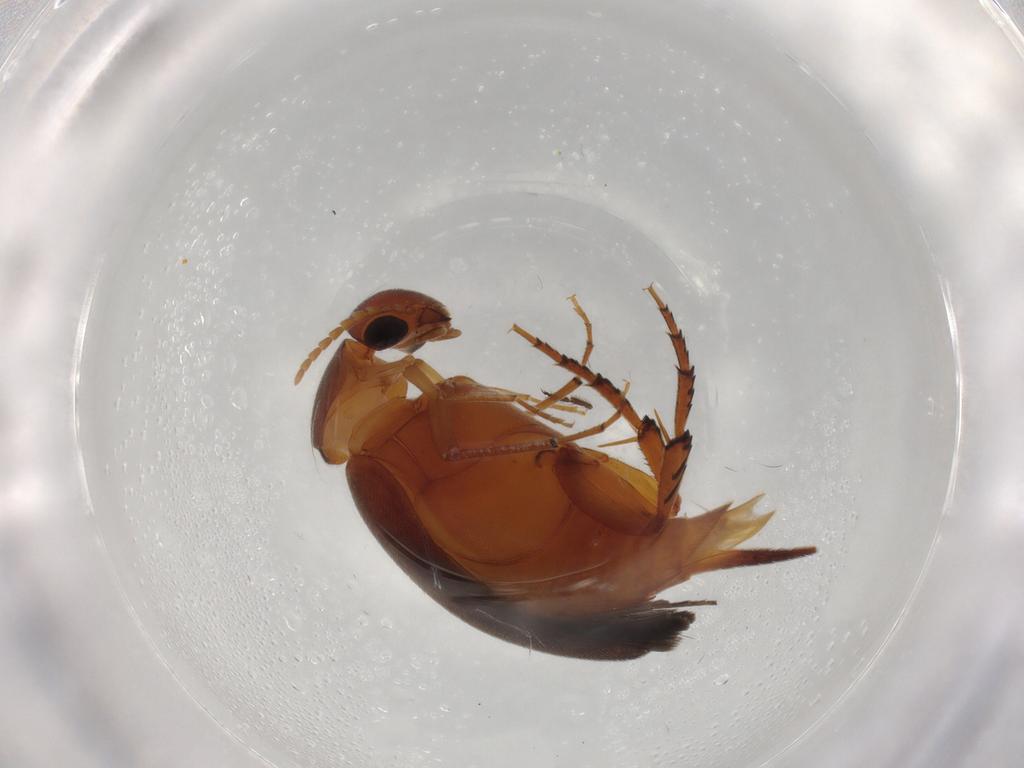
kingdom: Animalia
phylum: Arthropoda
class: Insecta
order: Coleoptera
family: Mordellidae
